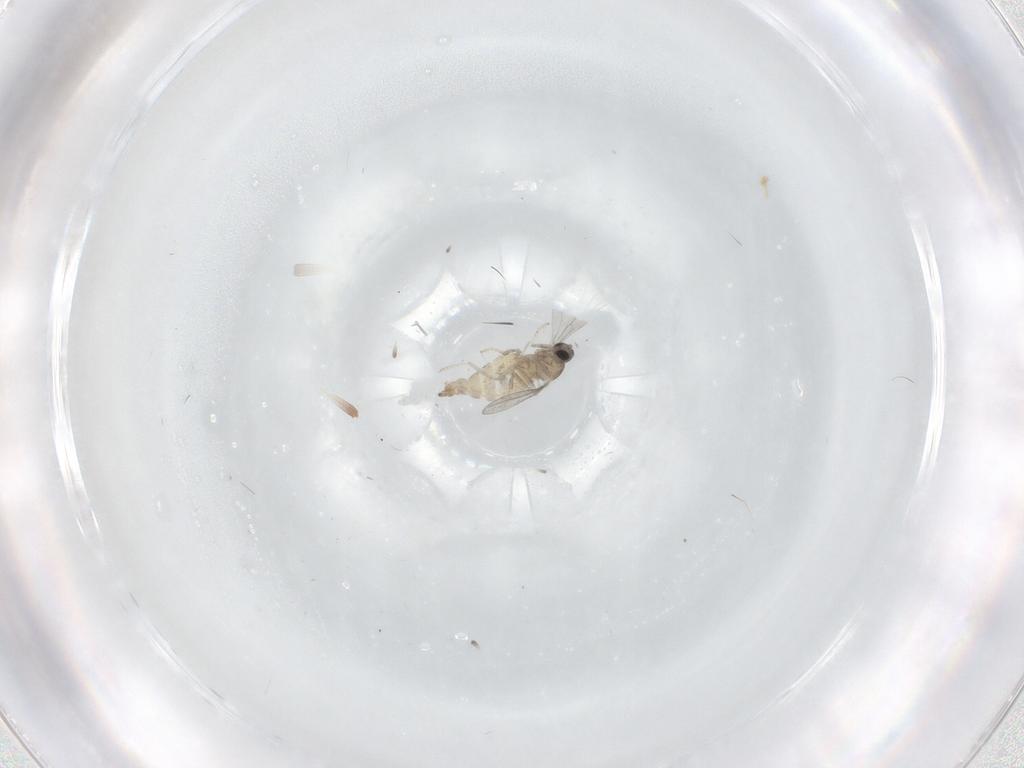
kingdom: Animalia
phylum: Arthropoda
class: Insecta
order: Diptera
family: Cecidomyiidae
